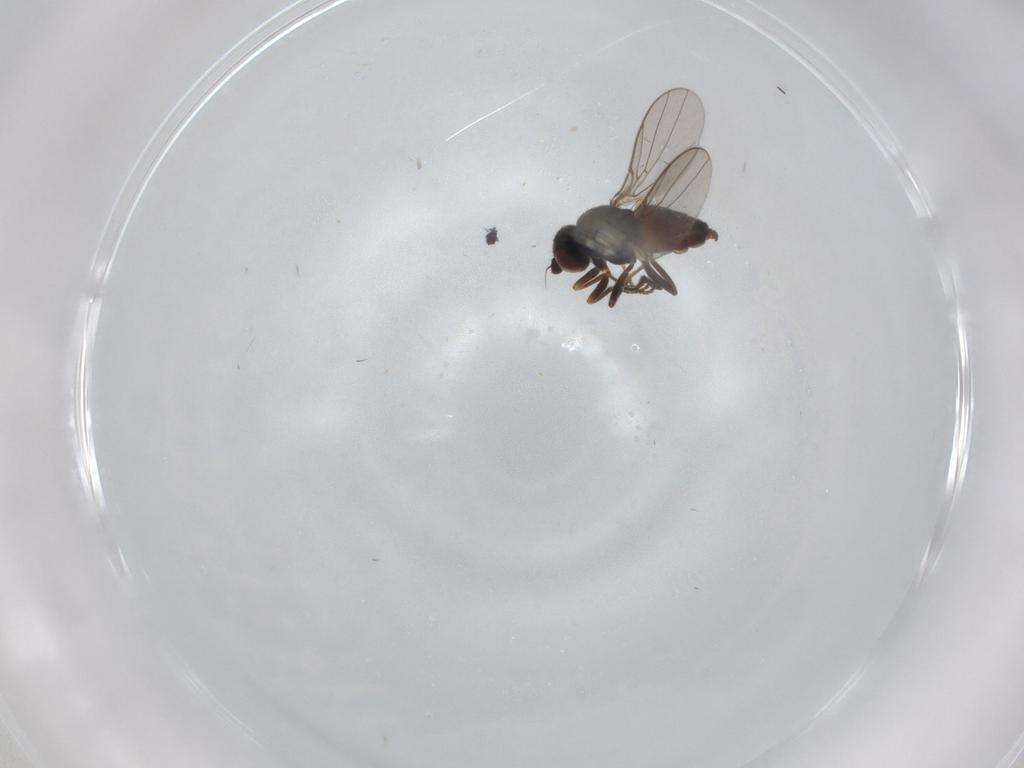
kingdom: Animalia
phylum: Arthropoda
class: Insecta
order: Diptera
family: Chloropidae
